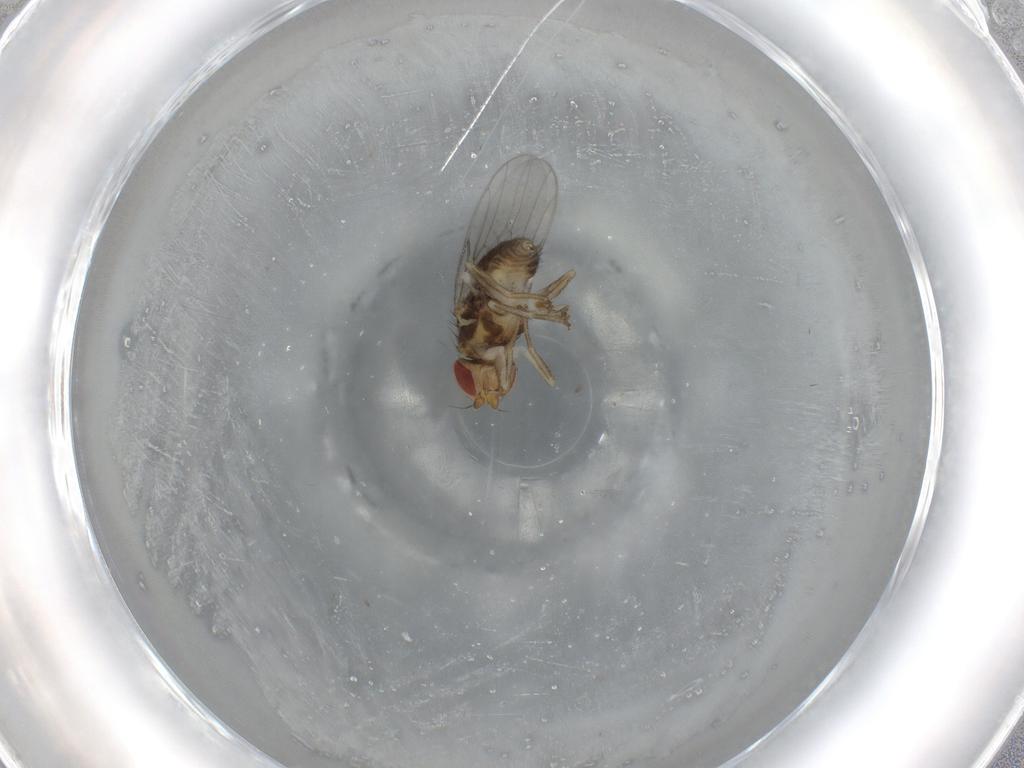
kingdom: Animalia
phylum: Arthropoda
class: Insecta
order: Diptera
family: Chloropidae
